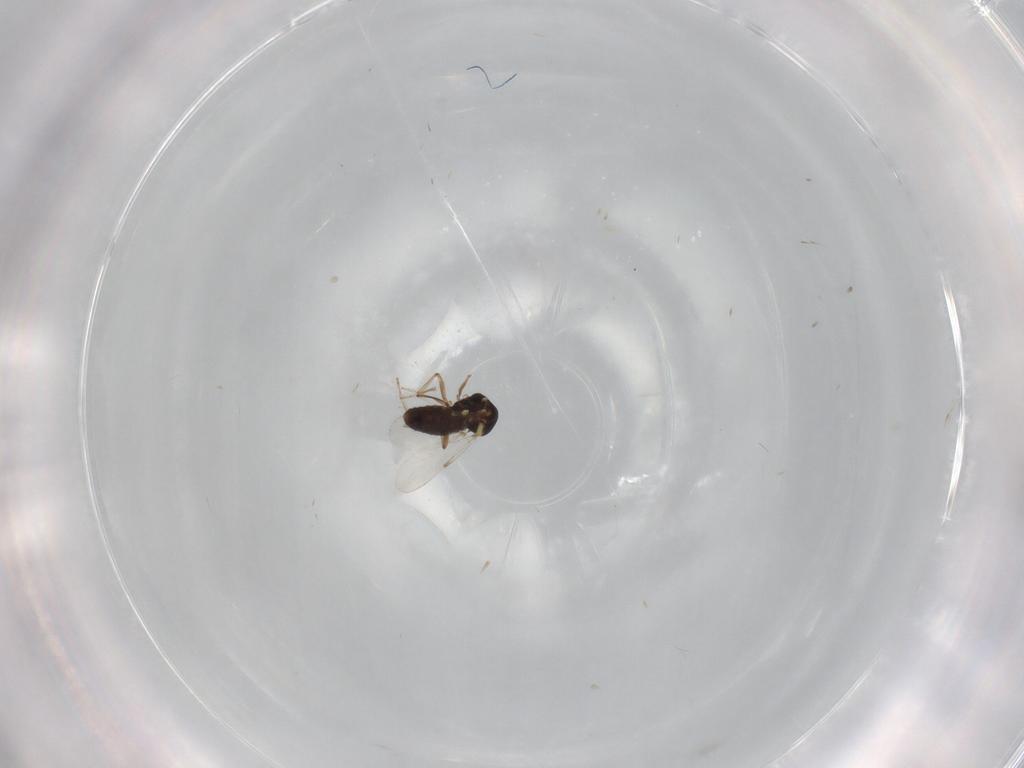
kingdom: Animalia
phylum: Arthropoda
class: Insecta
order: Diptera
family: Ceratopogonidae
